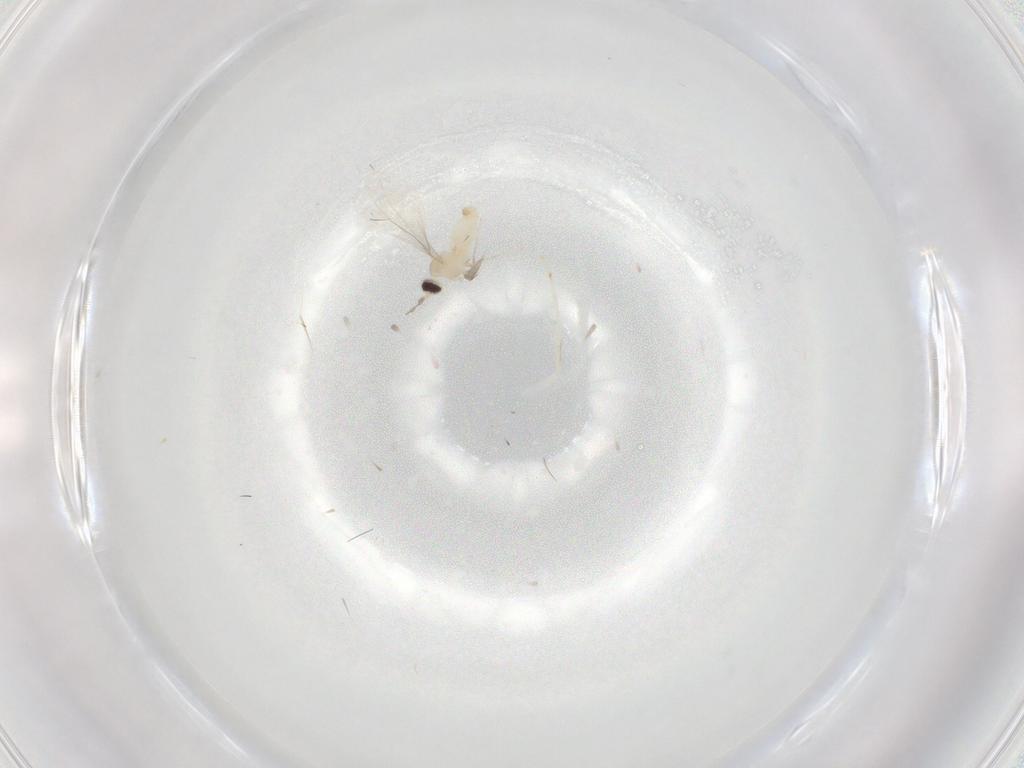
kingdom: Animalia
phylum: Arthropoda
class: Insecta
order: Diptera
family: Cecidomyiidae
